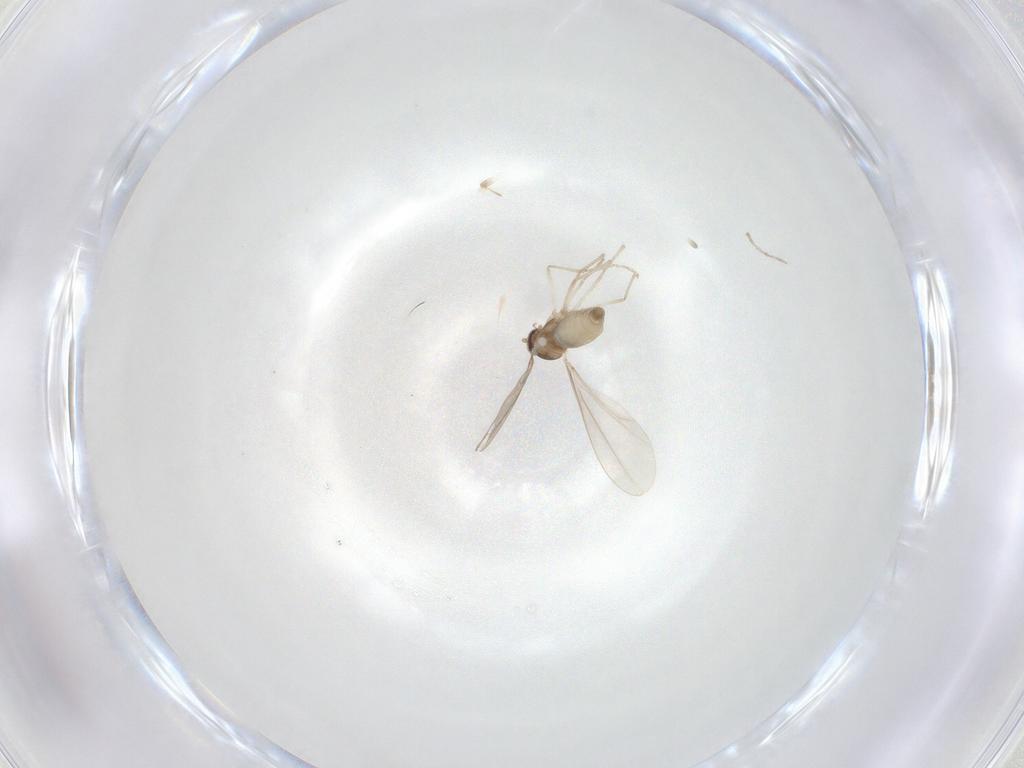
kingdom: Animalia
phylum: Arthropoda
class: Insecta
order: Diptera
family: Cecidomyiidae
